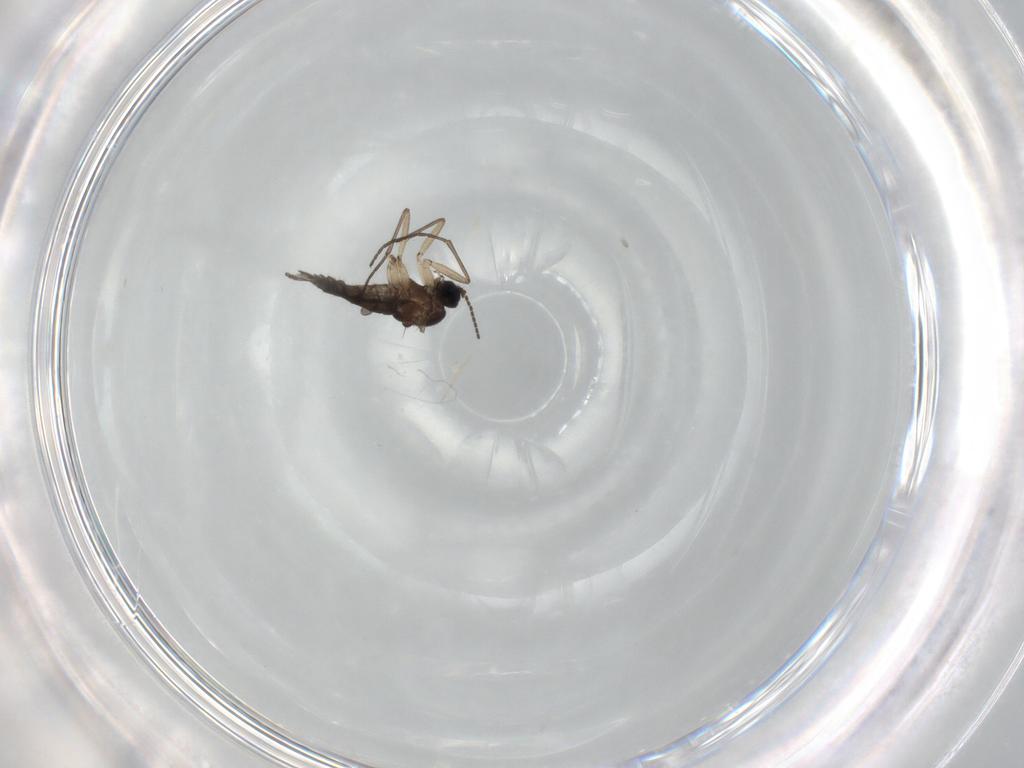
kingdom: Animalia
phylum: Arthropoda
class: Insecta
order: Diptera
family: Sciaridae
